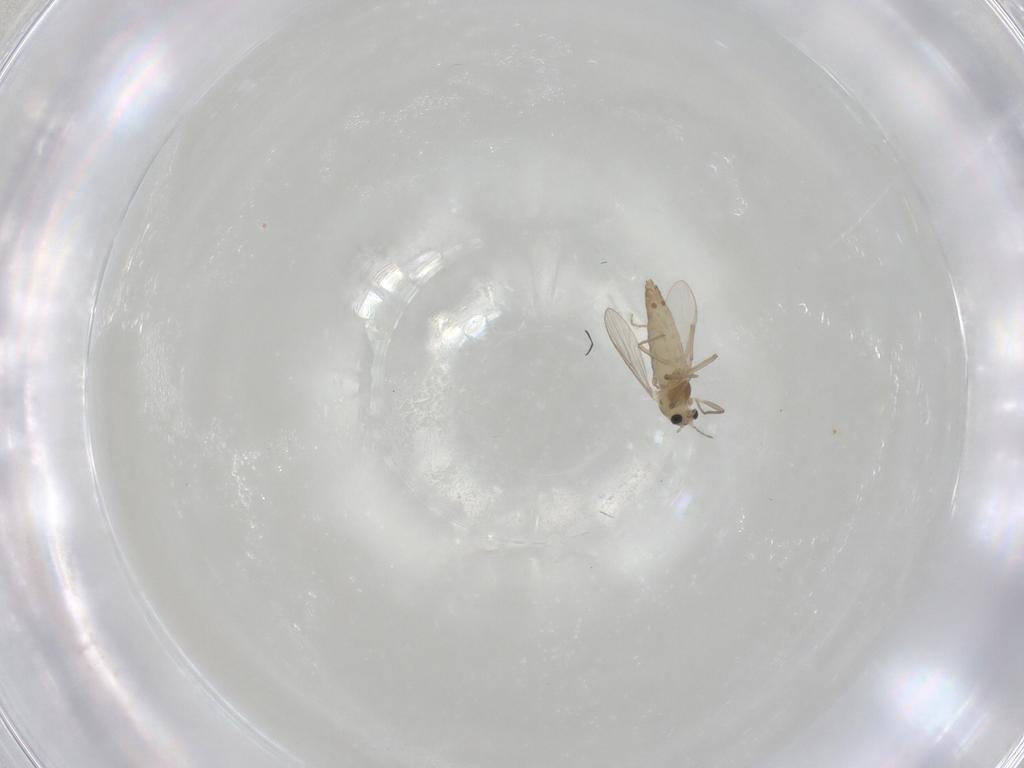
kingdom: Animalia
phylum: Arthropoda
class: Insecta
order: Diptera
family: Chironomidae
